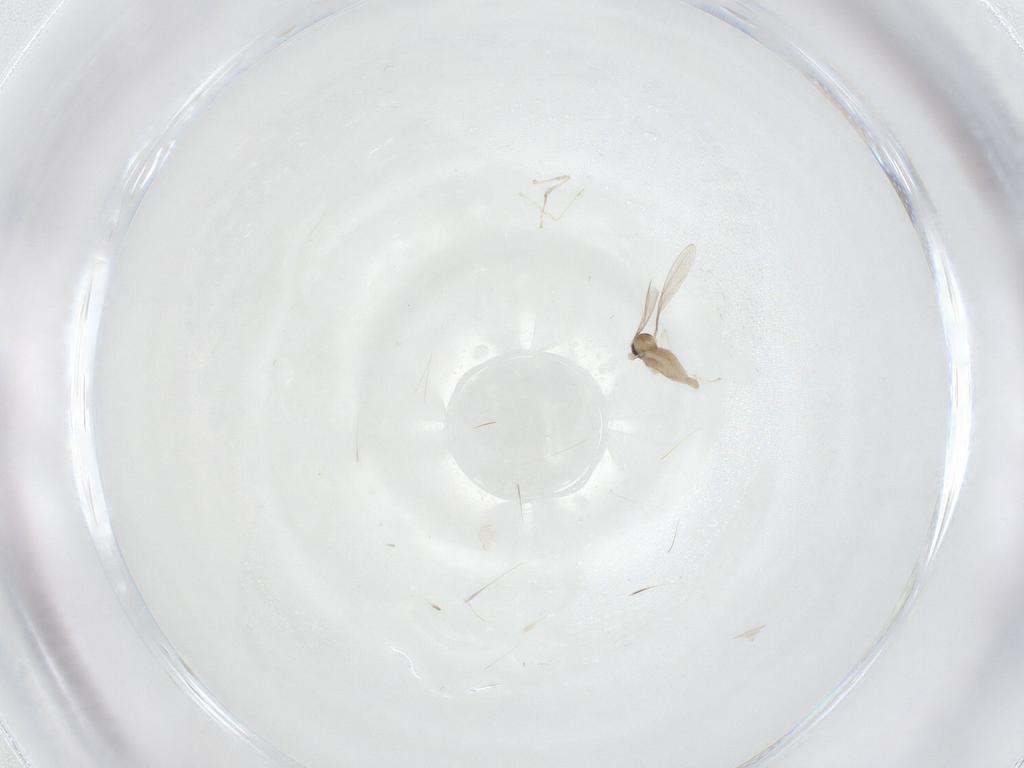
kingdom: Animalia
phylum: Arthropoda
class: Insecta
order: Diptera
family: Cecidomyiidae
